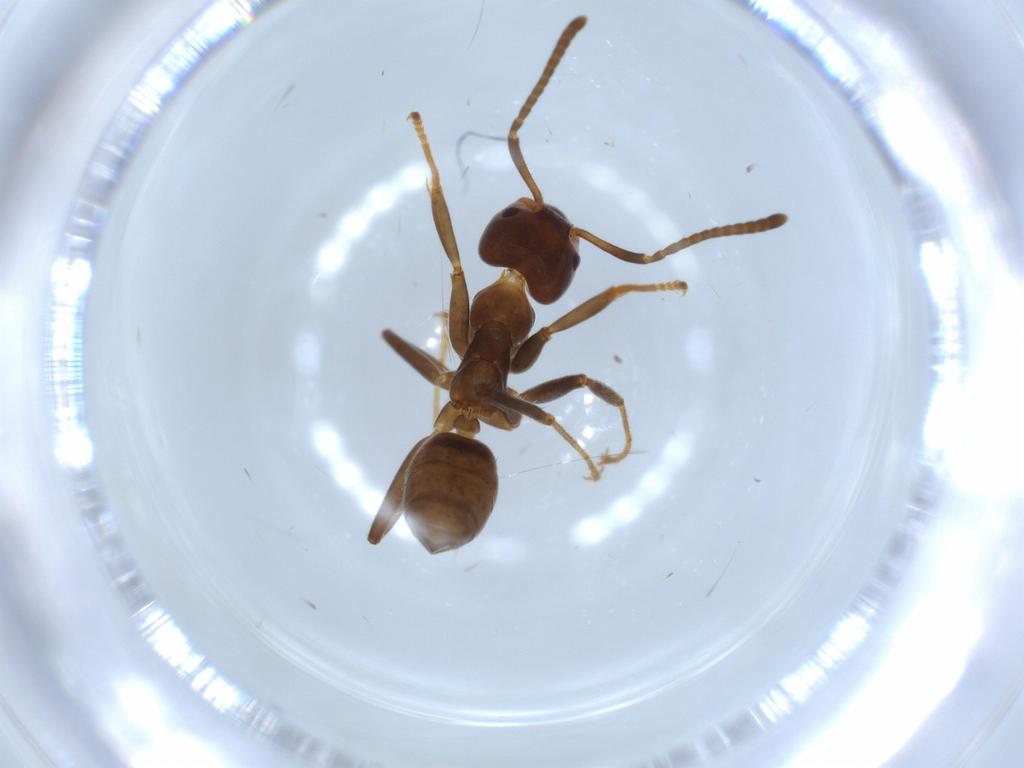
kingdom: Animalia
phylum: Arthropoda
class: Insecta
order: Hymenoptera
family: Formicidae
